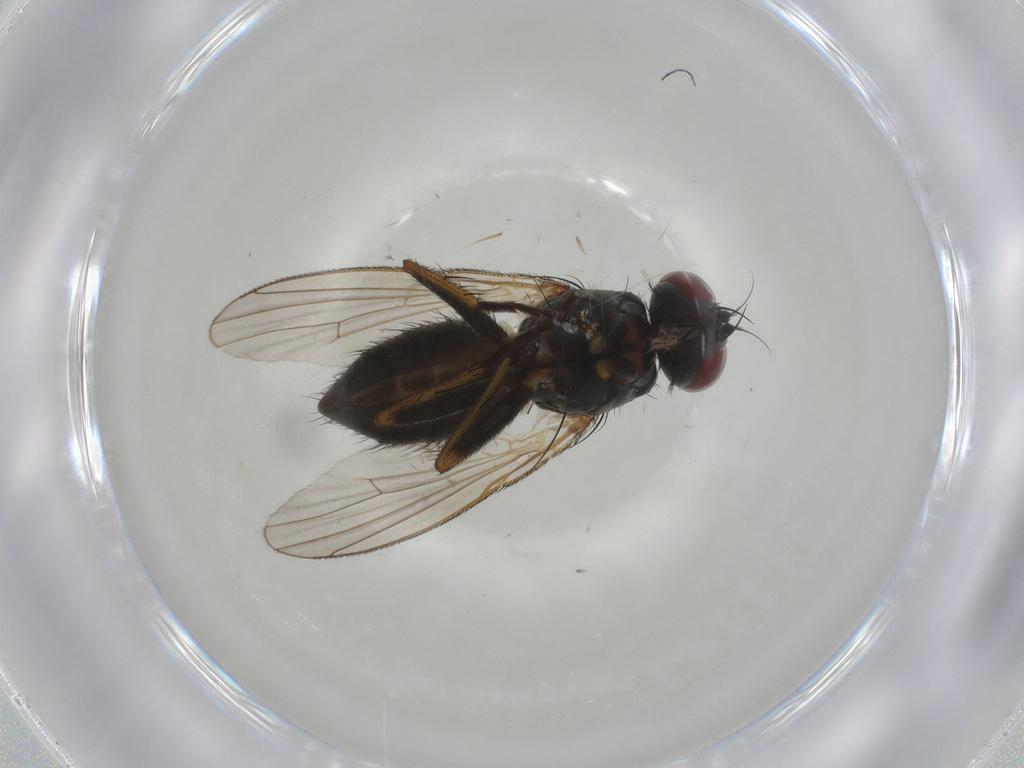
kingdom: Animalia
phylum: Arthropoda
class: Insecta
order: Diptera
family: Muscidae
